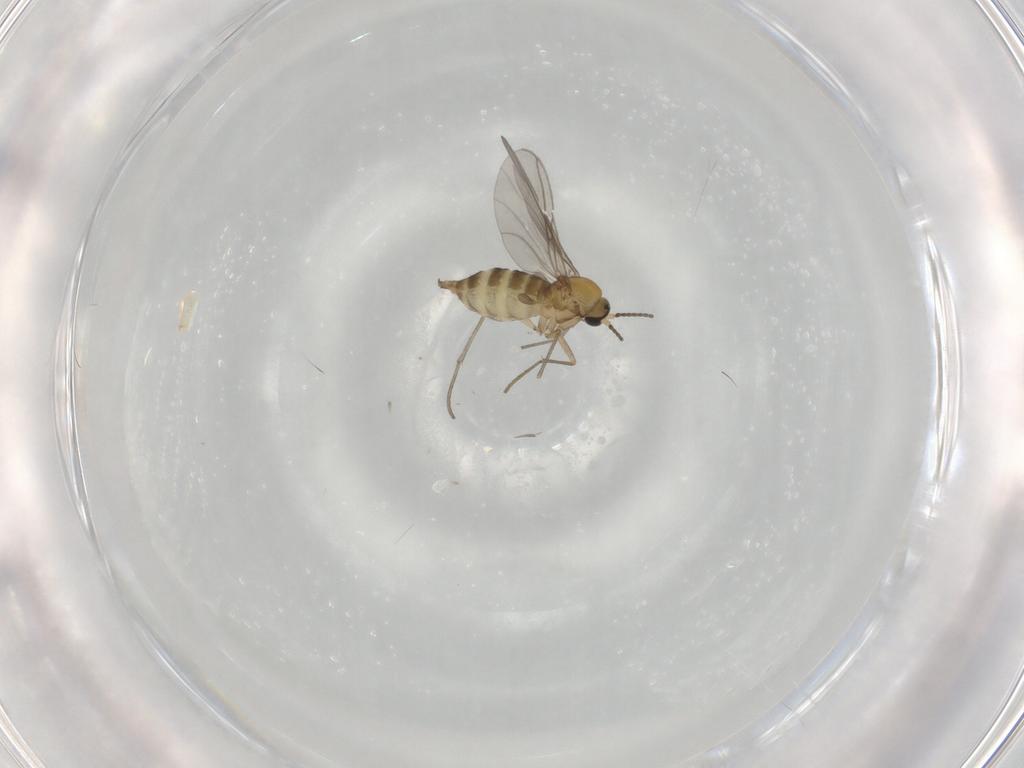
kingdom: Animalia
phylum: Arthropoda
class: Insecta
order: Diptera
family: Sciaridae
